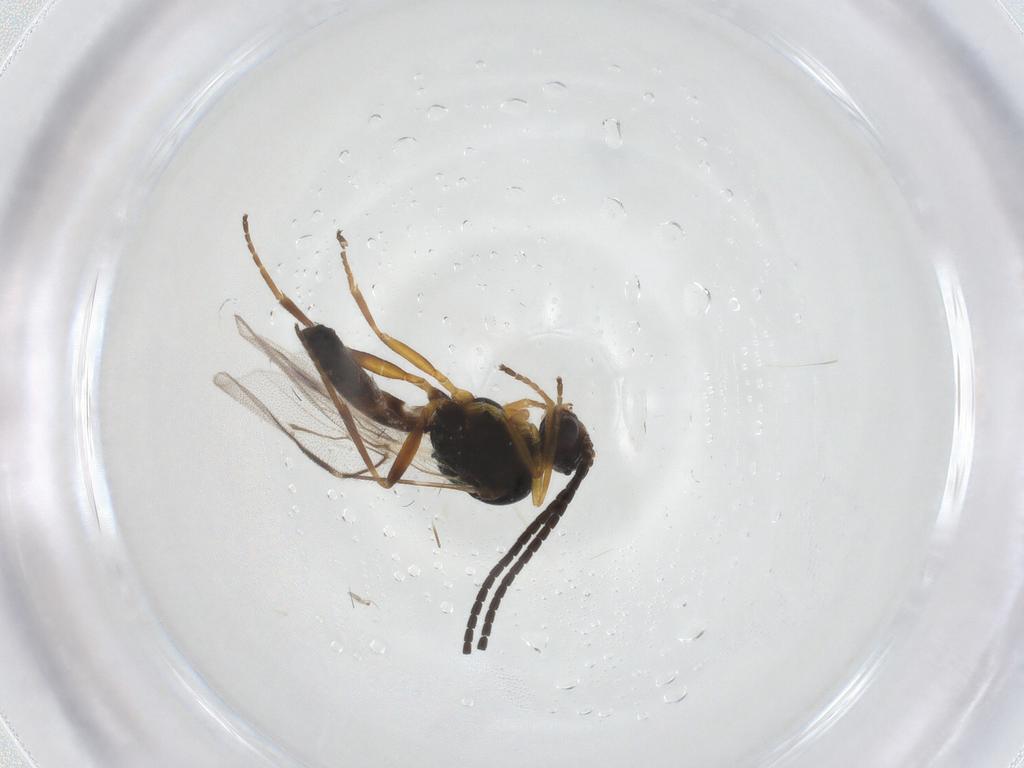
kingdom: Animalia
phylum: Arthropoda
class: Insecta
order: Hymenoptera
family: Braconidae
